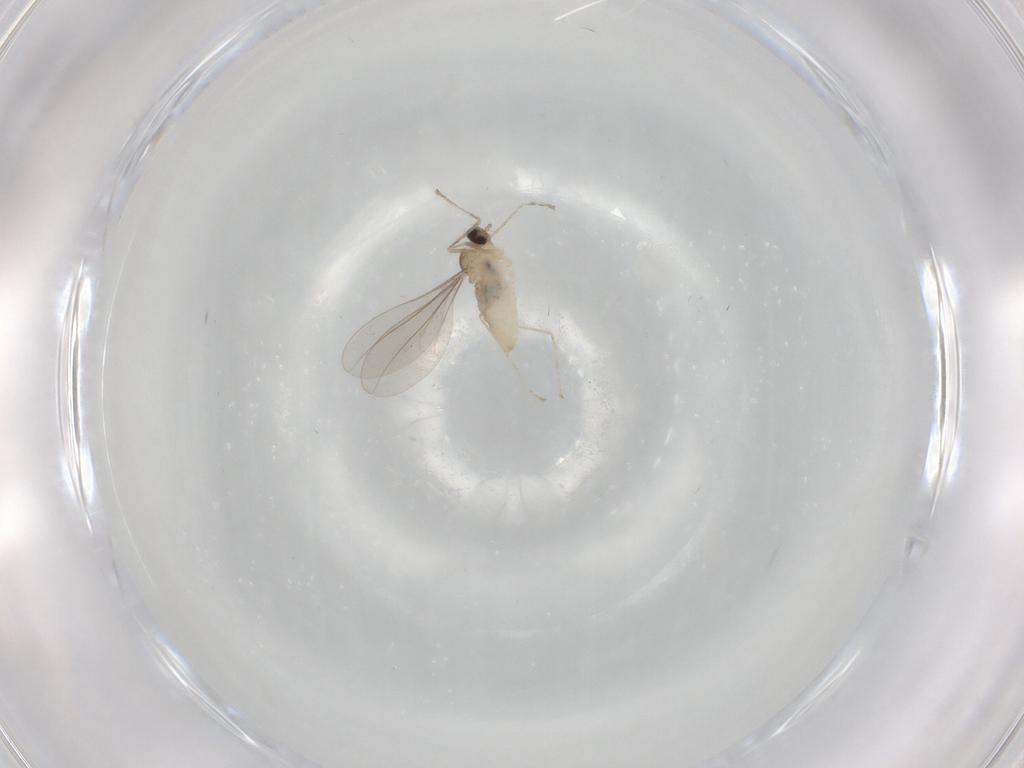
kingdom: Animalia
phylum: Arthropoda
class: Insecta
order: Diptera
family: Cecidomyiidae
